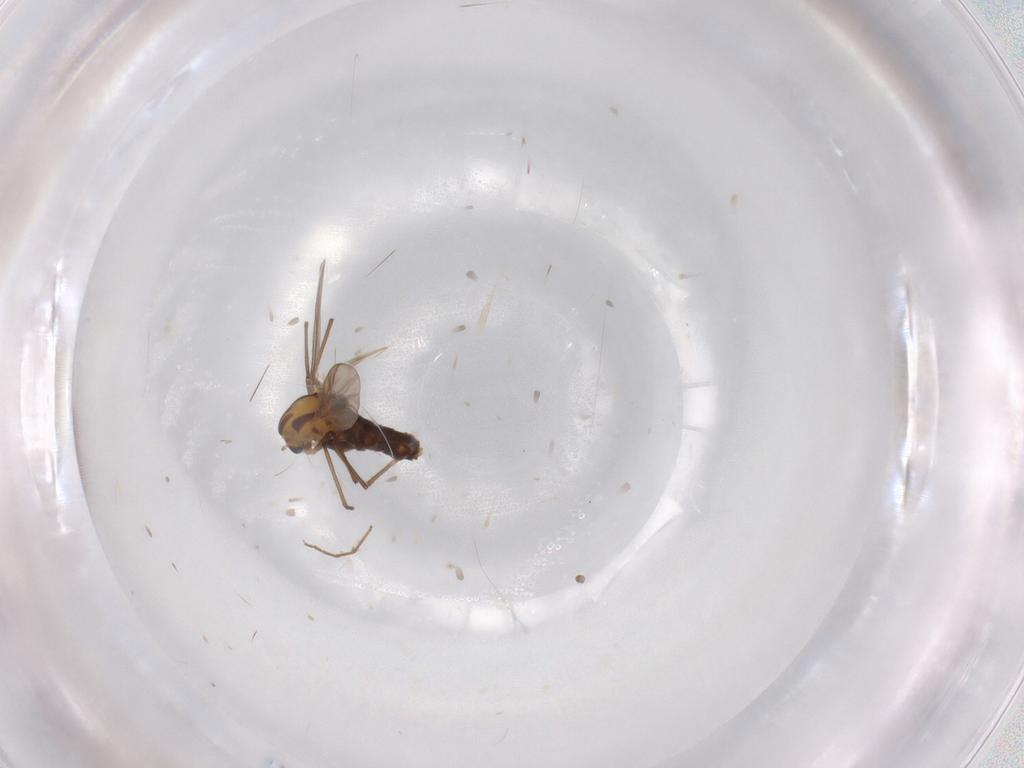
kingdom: Animalia
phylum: Arthropoda
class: Insecta
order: Diptera
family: Chironomidae
